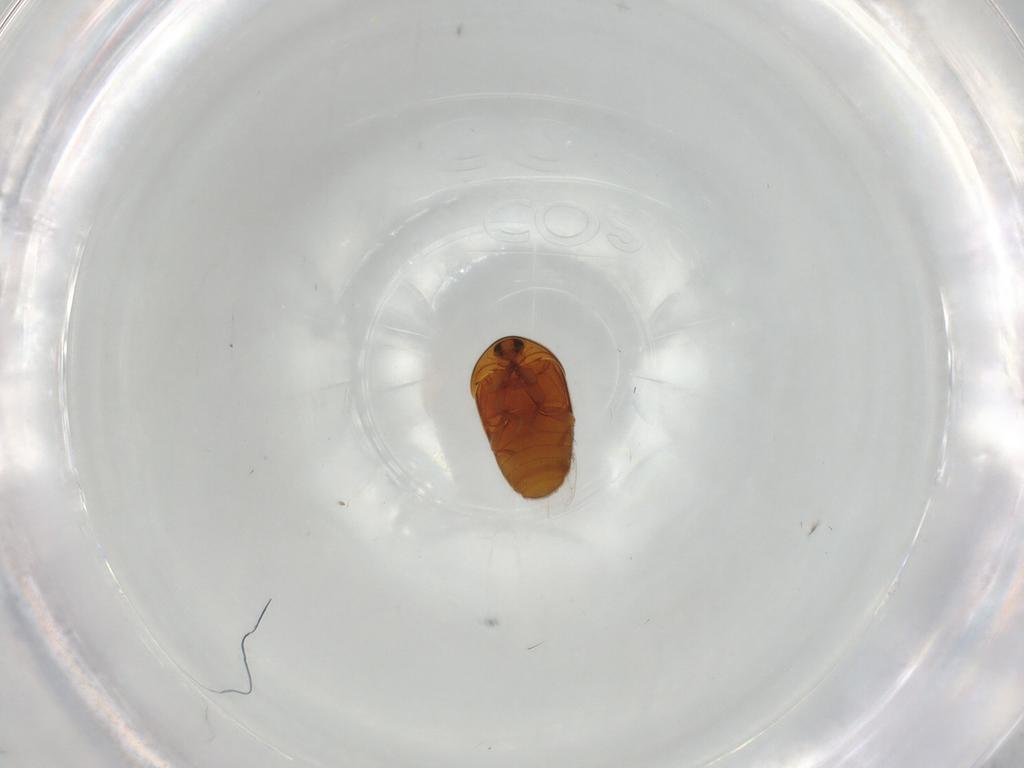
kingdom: Animalia
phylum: Arthropoda
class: Insecta
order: Coleoptera
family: Corylophidae
